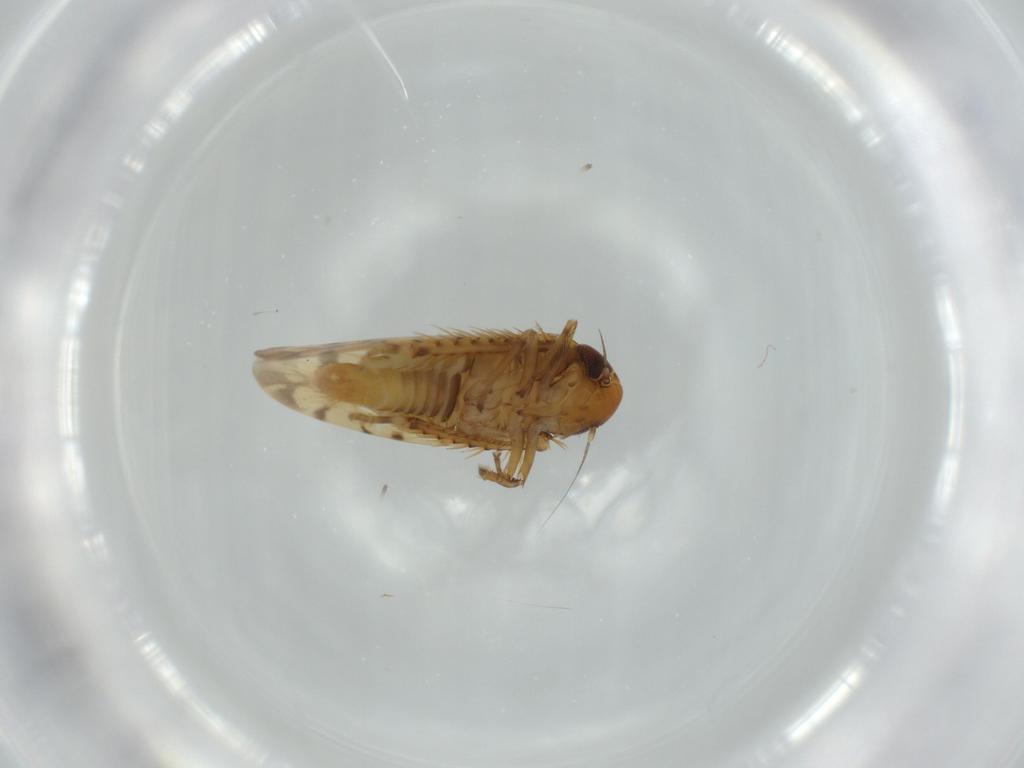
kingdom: Animalia
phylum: Arthropoda
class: Insecta
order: Hemiptera
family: Cicadellidae
